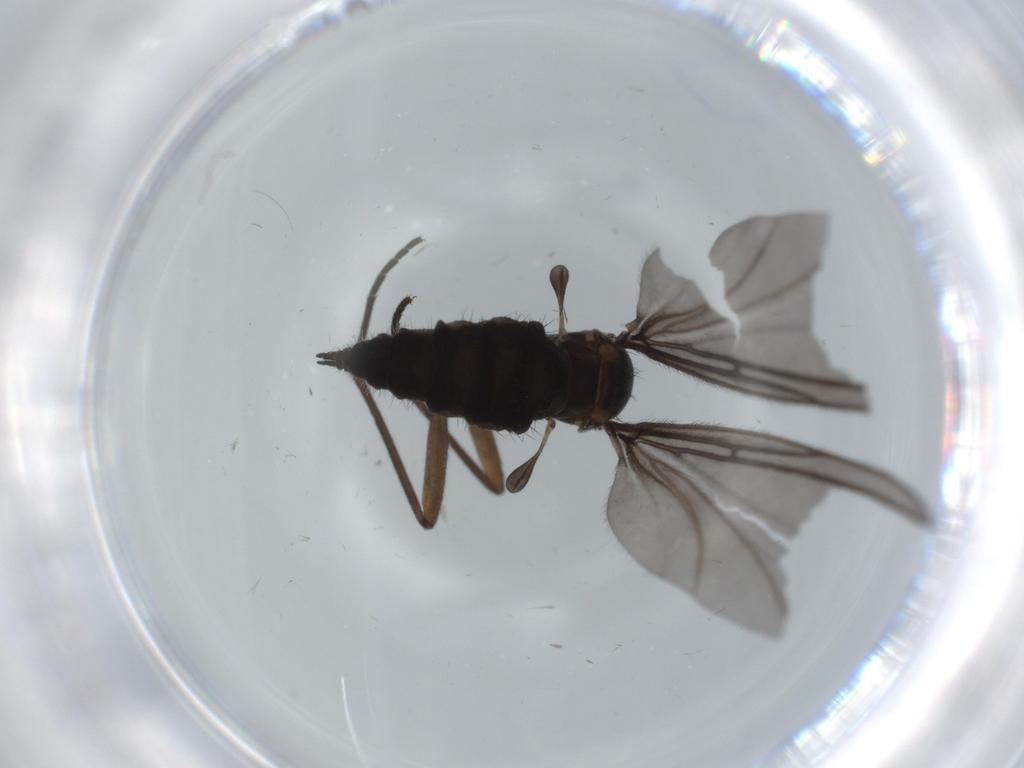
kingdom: Animalia
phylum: Arthropoda
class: Insecta
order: Diptera
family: Sciaridae
